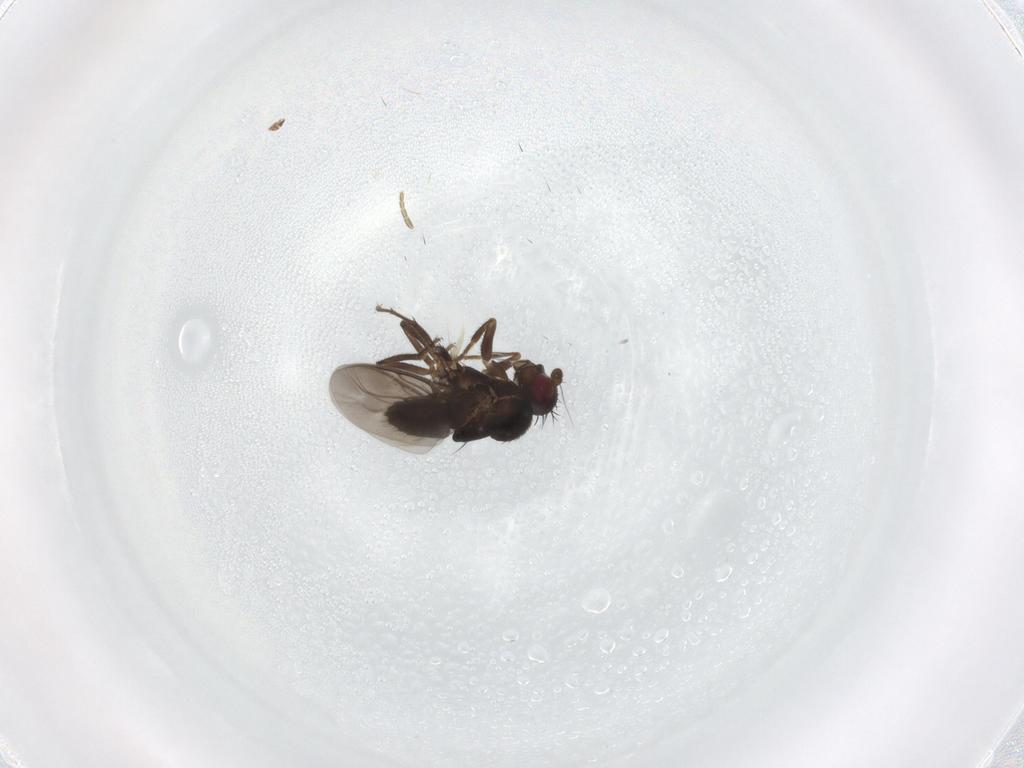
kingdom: Animalia
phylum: Arthropoda
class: Insecta
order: Diptera
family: Sphaeroceridae
